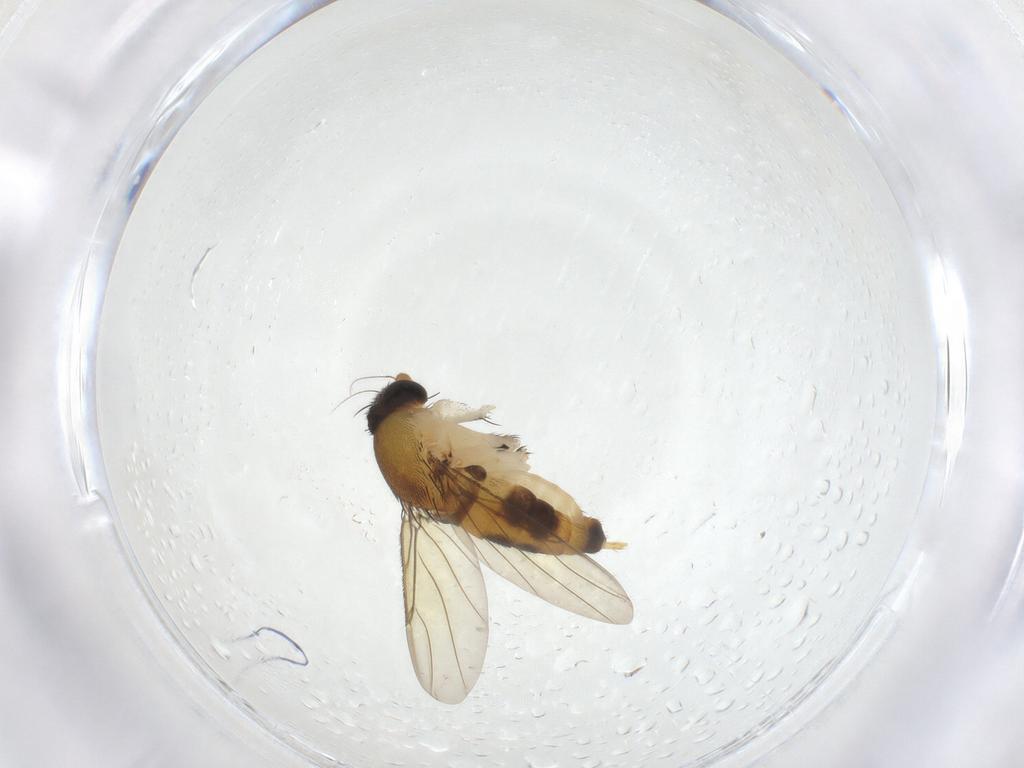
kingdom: Animalia
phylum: Arthropoda
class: Insecta
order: Diptera
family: Phoridae
